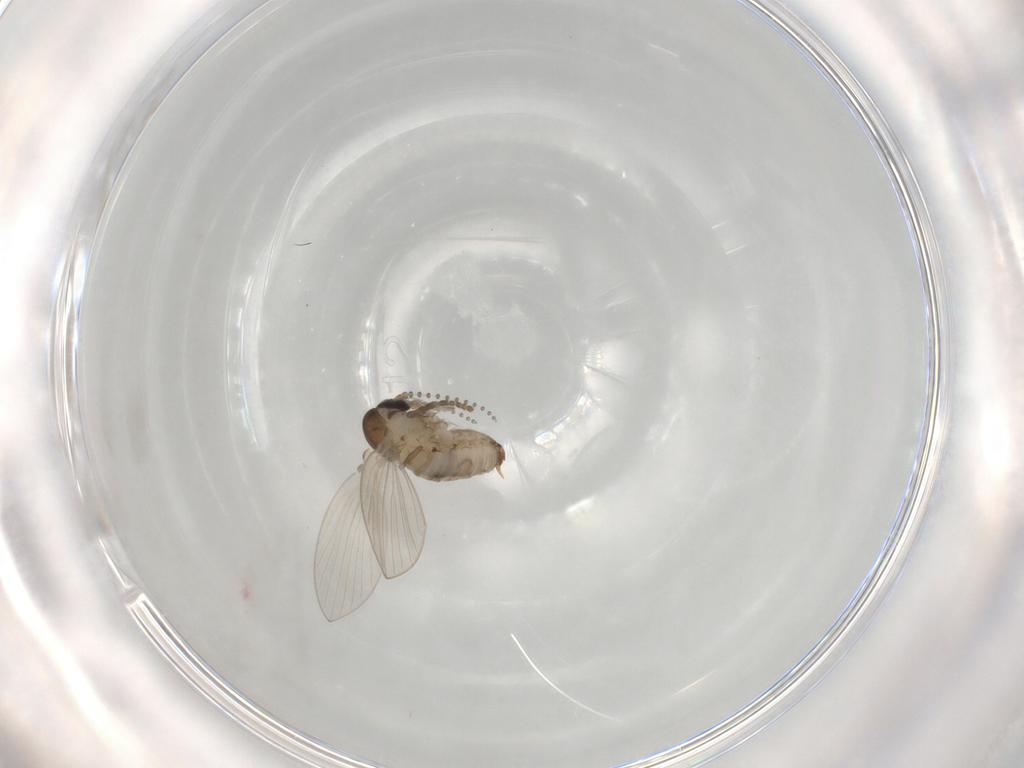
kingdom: Animalia
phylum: Arthropoda
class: Insecta
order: Diptera
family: Psychodidae
